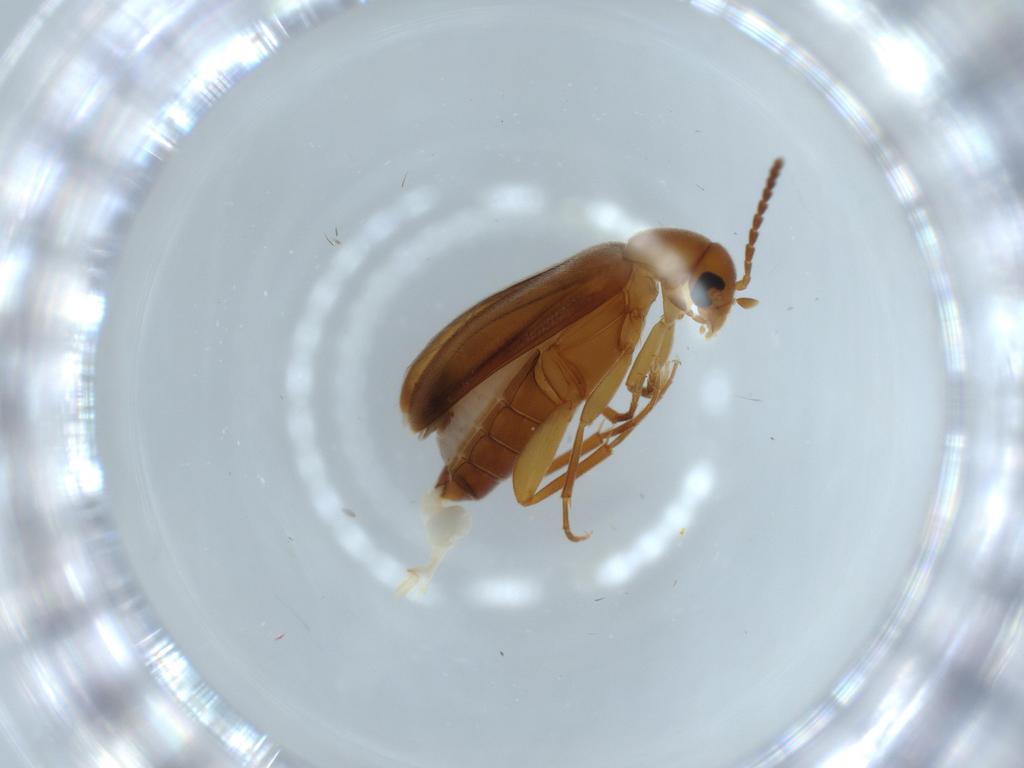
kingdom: Animalia
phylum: Arthropoda
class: Insecta
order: Coleoptera
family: Scraptiidae
